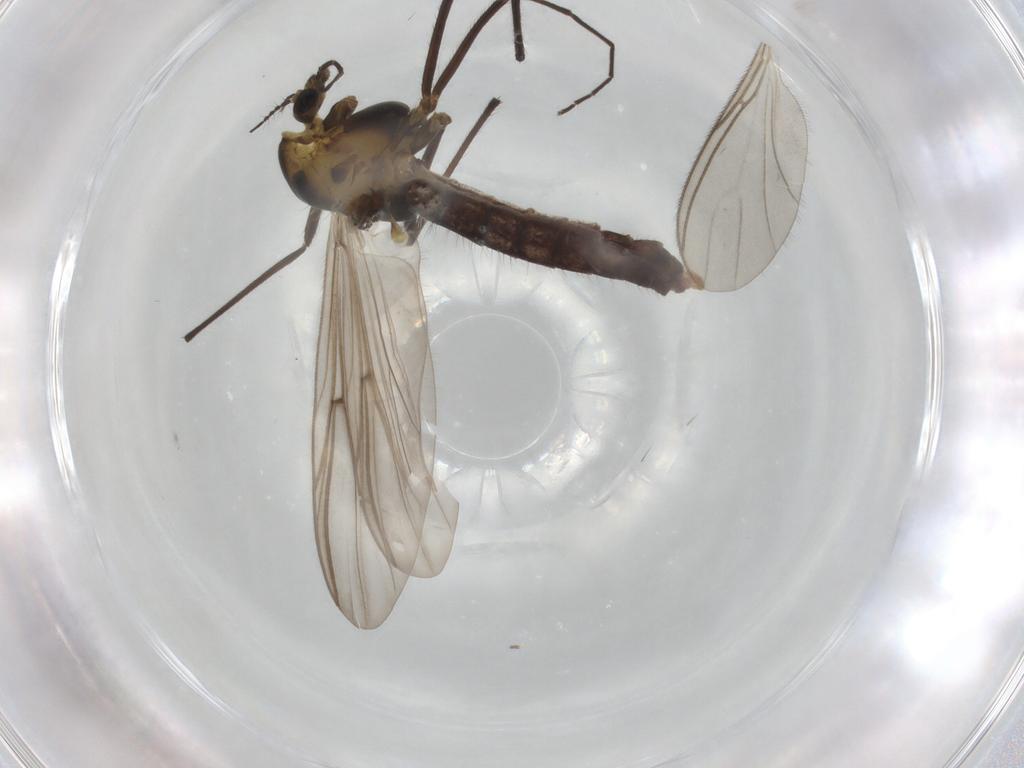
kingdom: Animalia
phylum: Arthropoda
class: Insecta
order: Diptera
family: Chironomidae
